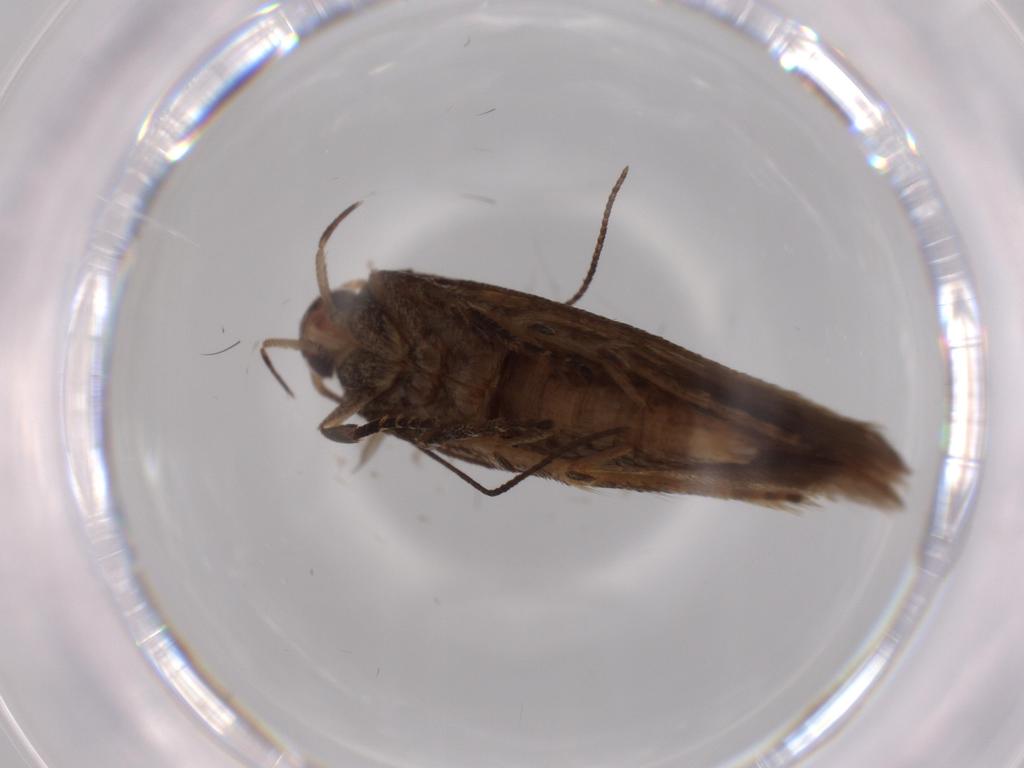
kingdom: Animalia
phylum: Arthropoda
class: Insecta
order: Lepidoptera
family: Gelechiidae
